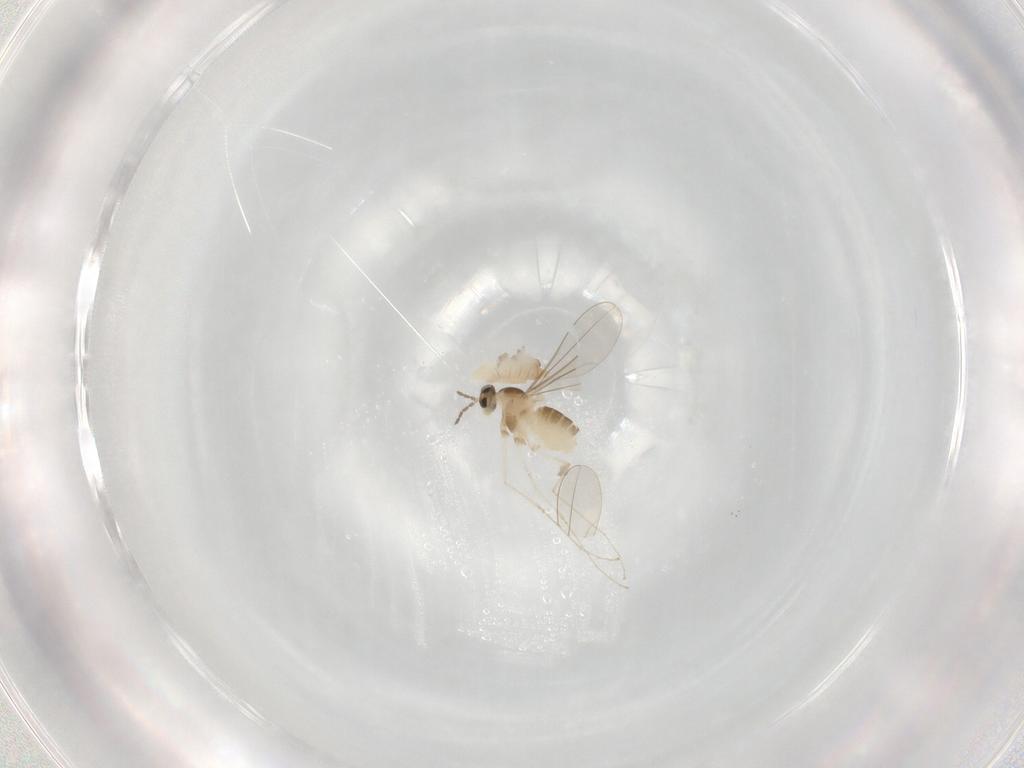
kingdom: Animalia
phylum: Arthropoda
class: Insecta
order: Diptera
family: Cecidomyiidae
